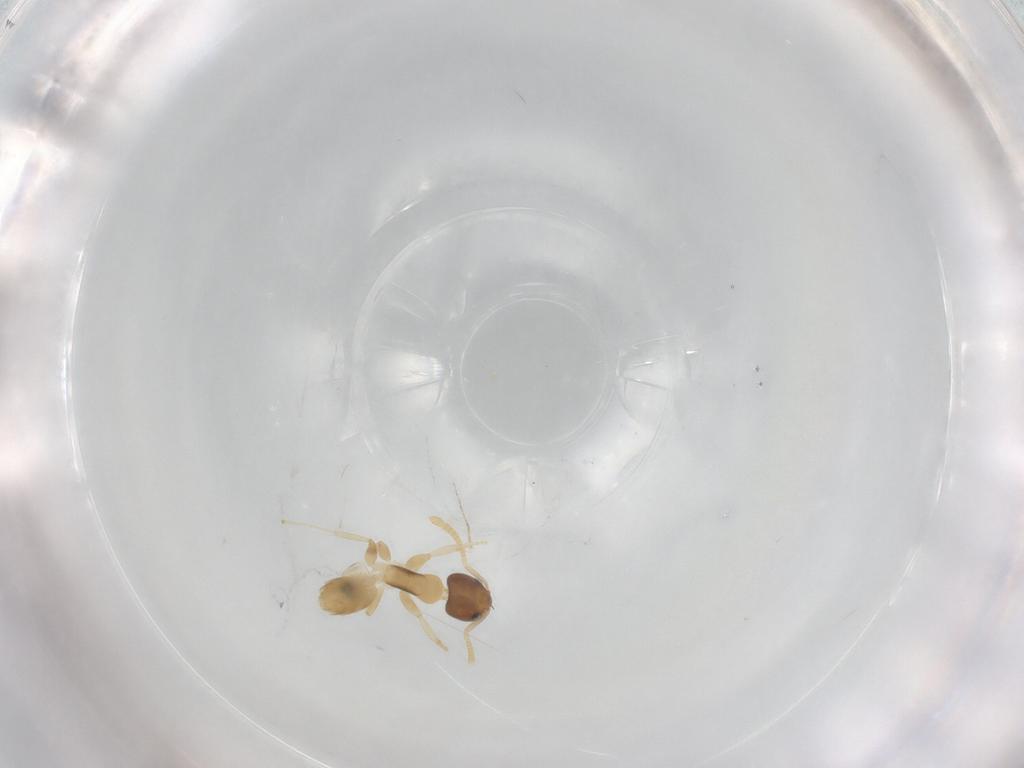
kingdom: Animalia
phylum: Arthropoda
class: Insecta
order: Hymenoptera
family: Formicidae
